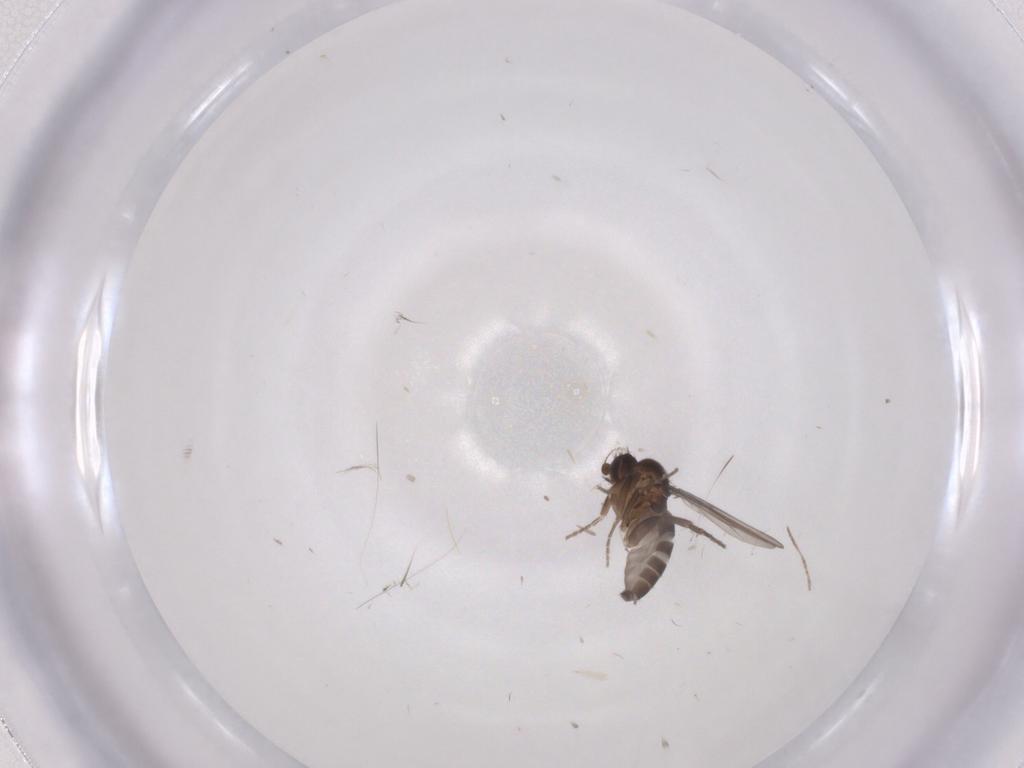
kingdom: Animalia
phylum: Arthropoda
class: Insecta
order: Diptera
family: Phoridae
